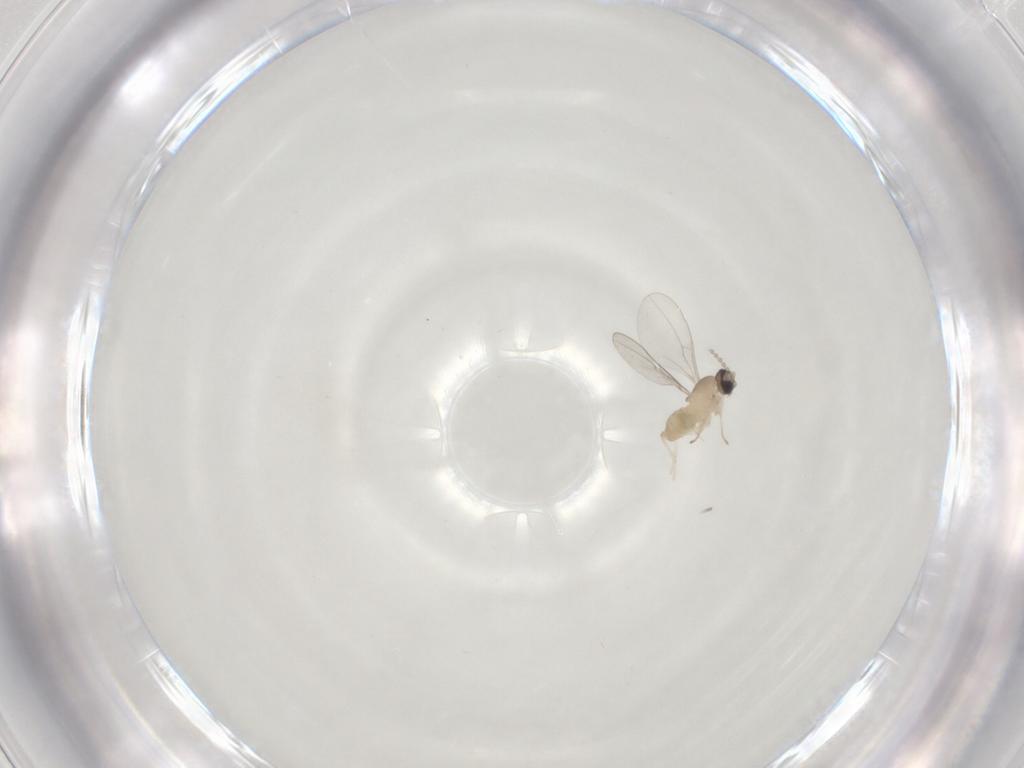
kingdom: Animalia
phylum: Arthropoda
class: Insecta
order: Diptera
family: Cecidomyiidae
